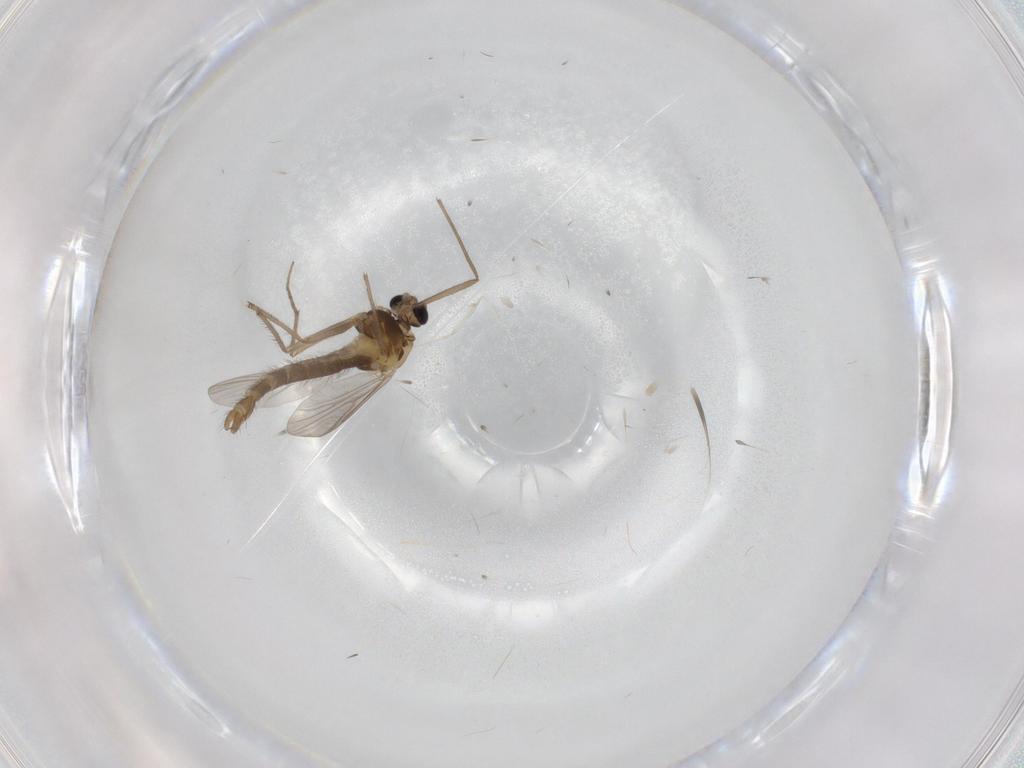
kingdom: Animalia
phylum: Arthropoda
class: Insecta
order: Diptera
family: Chironomidae
